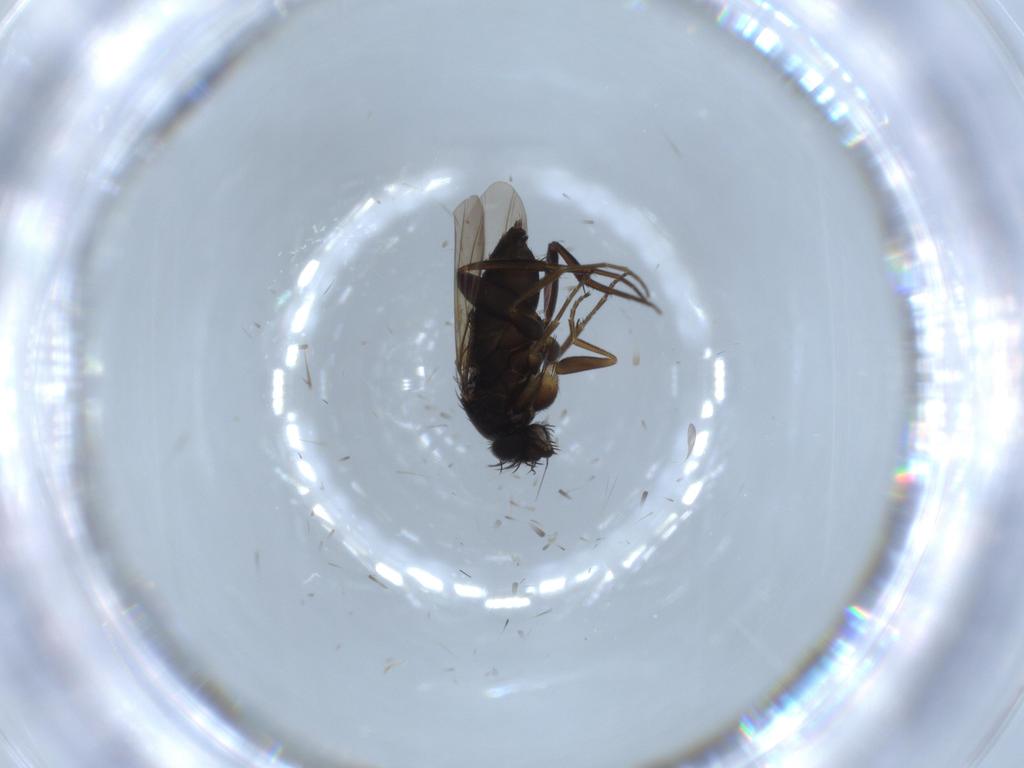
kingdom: Animalia
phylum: Arthropoda
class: Insecta
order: Diptera
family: Phoridae
